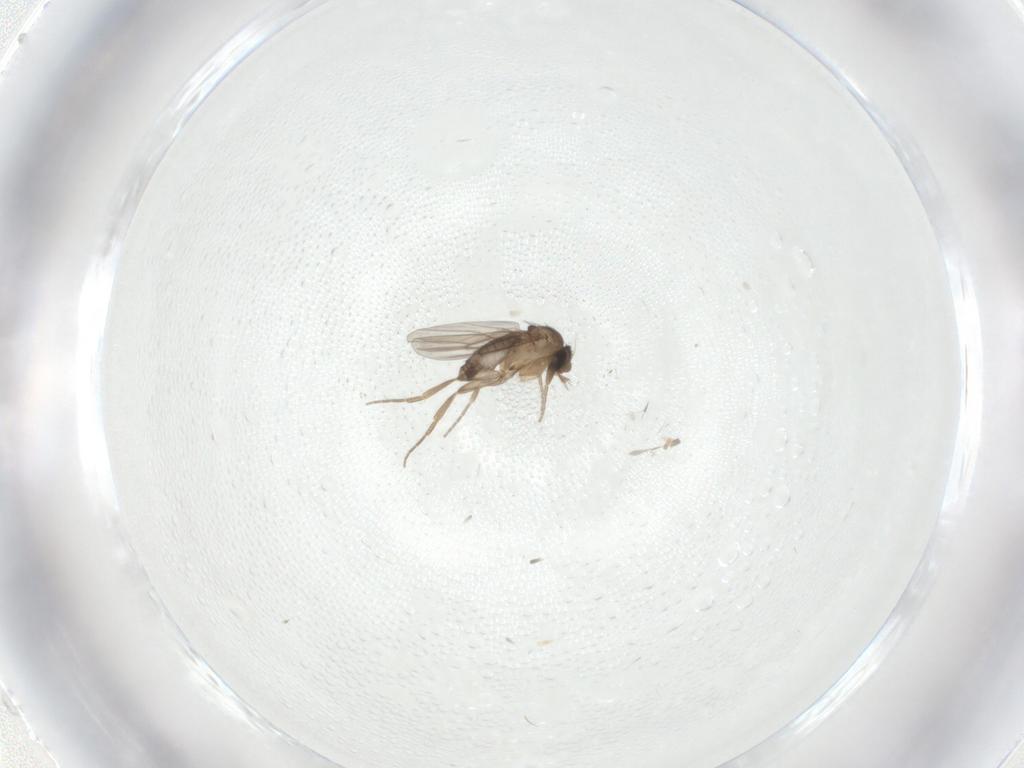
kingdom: Animalia
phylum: Arthropoda
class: Insecta
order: Diptera
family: Phoridae
